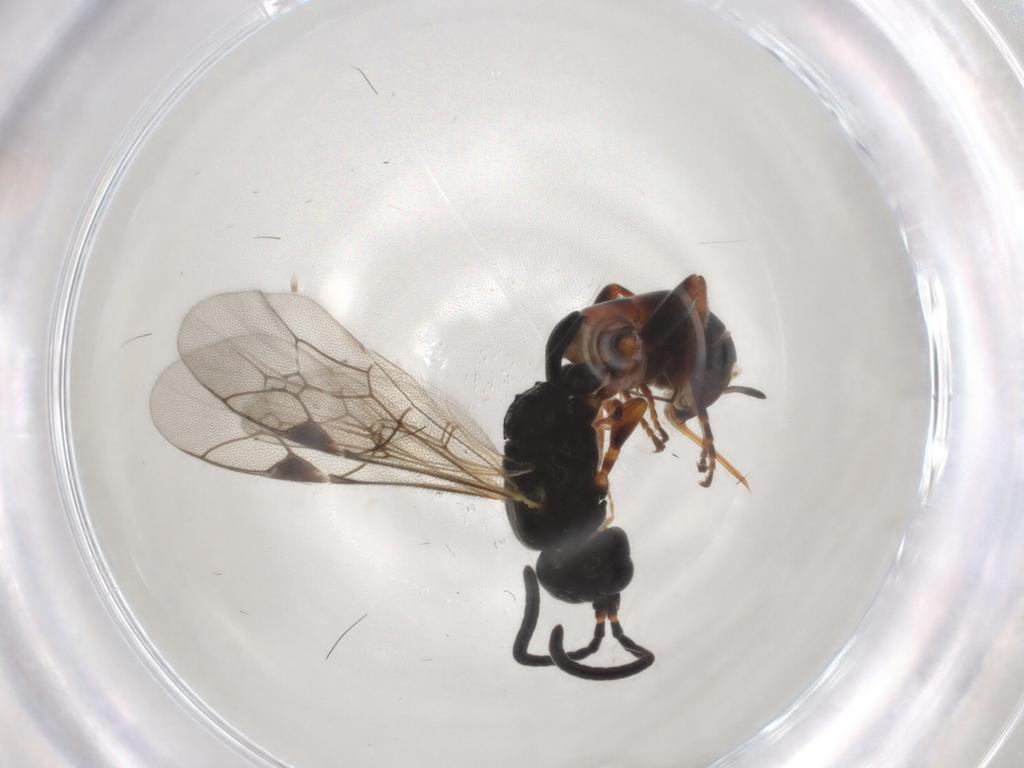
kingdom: Animalia
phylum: Arthropoda
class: Insecta
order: Hymenoptera
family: Ichneumonidae
